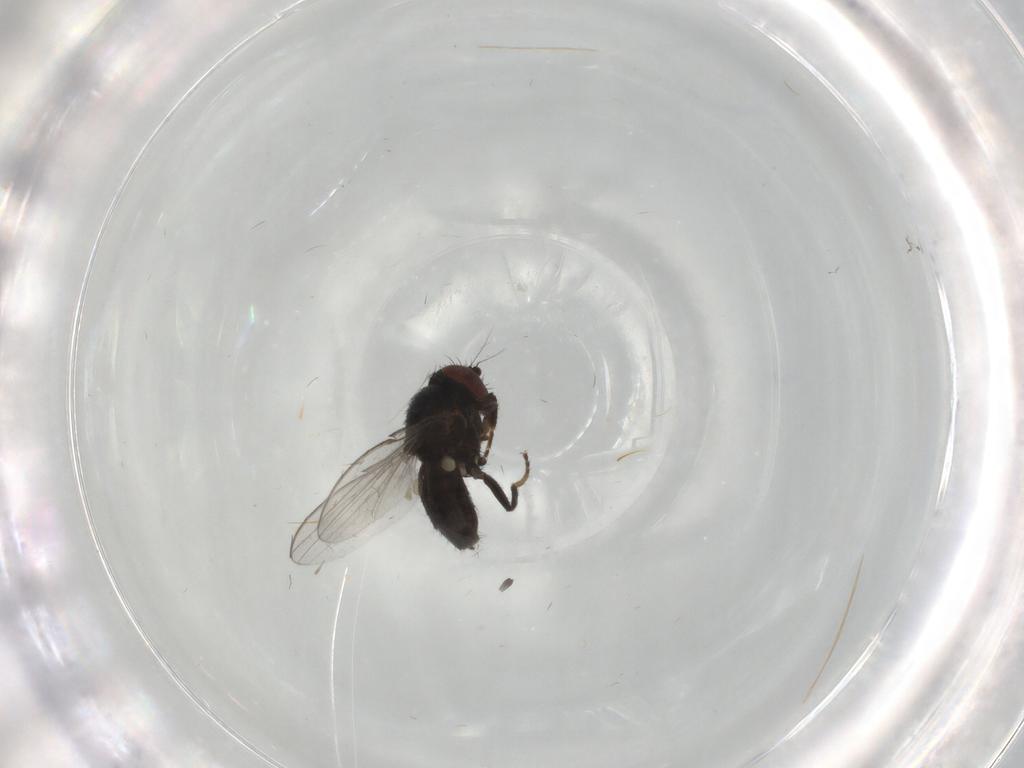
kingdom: Animalia
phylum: Arthropoda
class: Insecta
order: Diptera
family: Milichiidae
